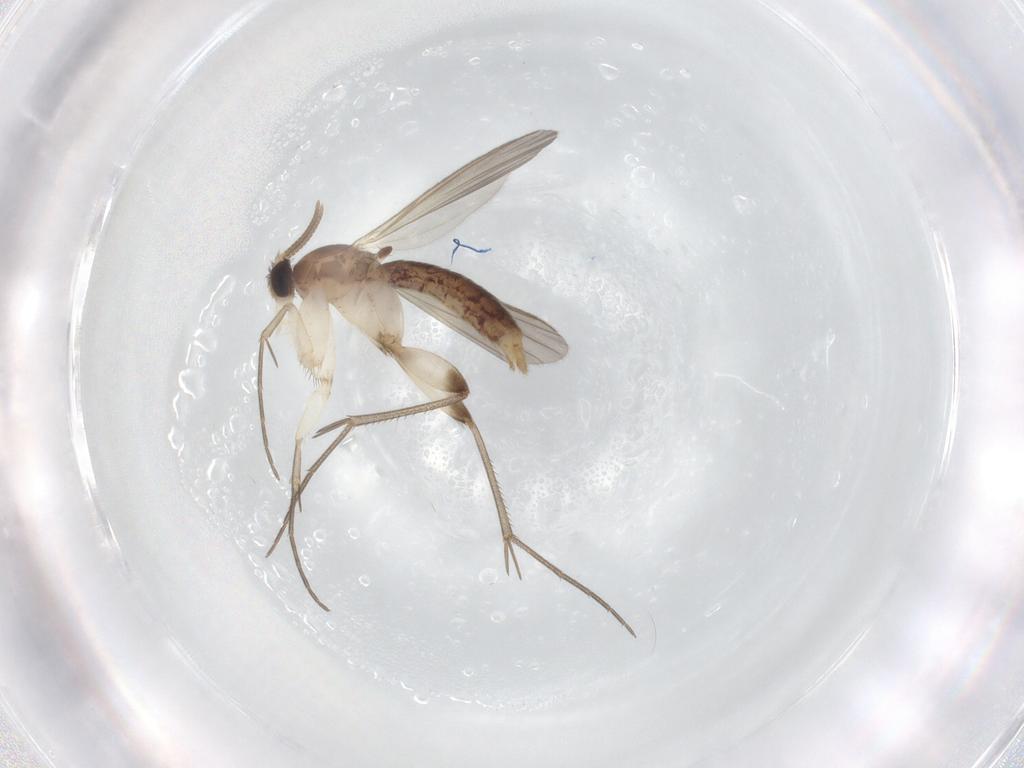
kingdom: Animalia
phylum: Arthropoda
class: Insecta
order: Diptera
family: Mycetophilidae
